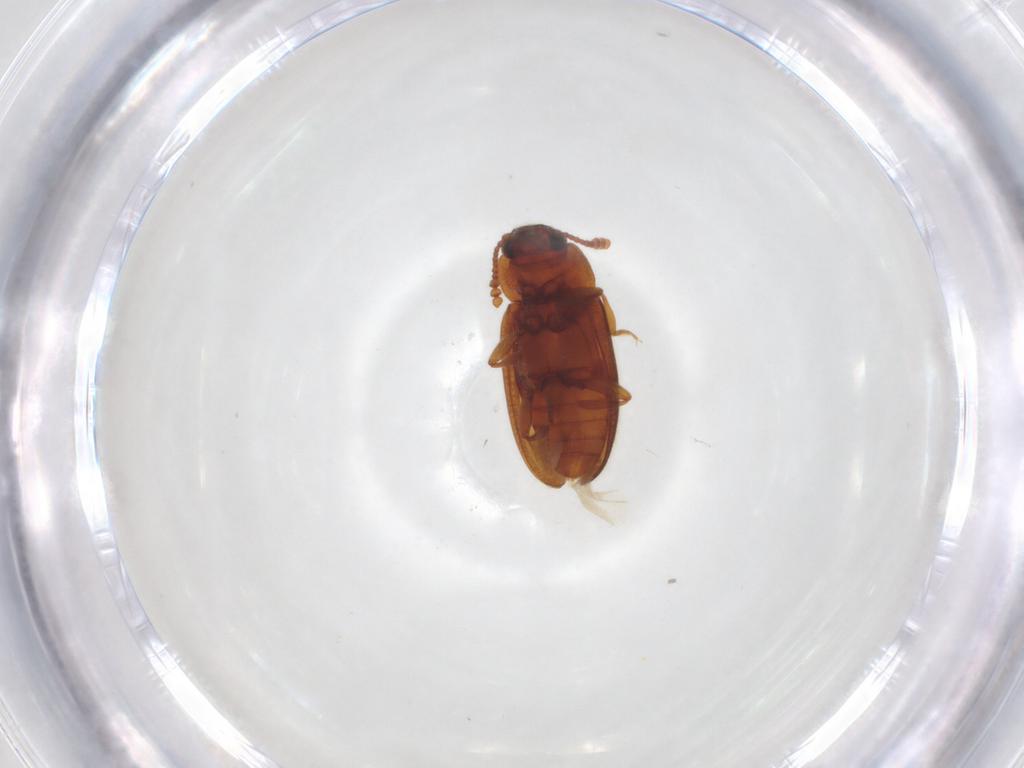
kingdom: Animalia
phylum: Arthropoda
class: Insecta
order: Coleoptera
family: Erotylidae
